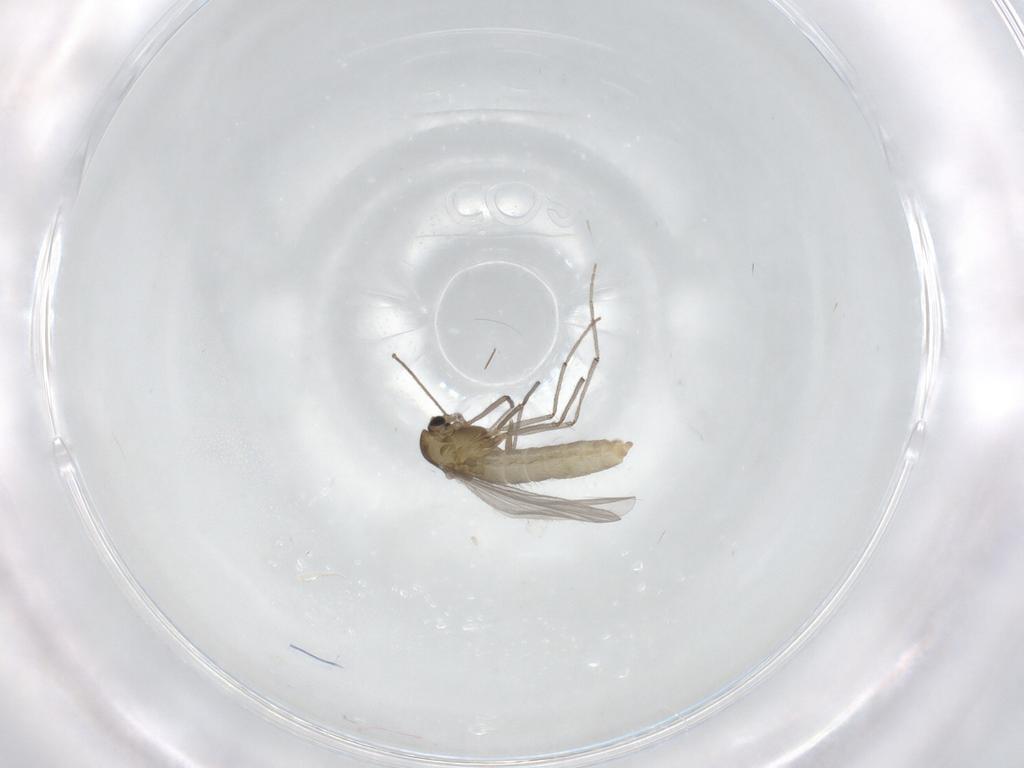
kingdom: Animalia
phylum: Arthropoda
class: Insecta
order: Diptera
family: Chironomidae
